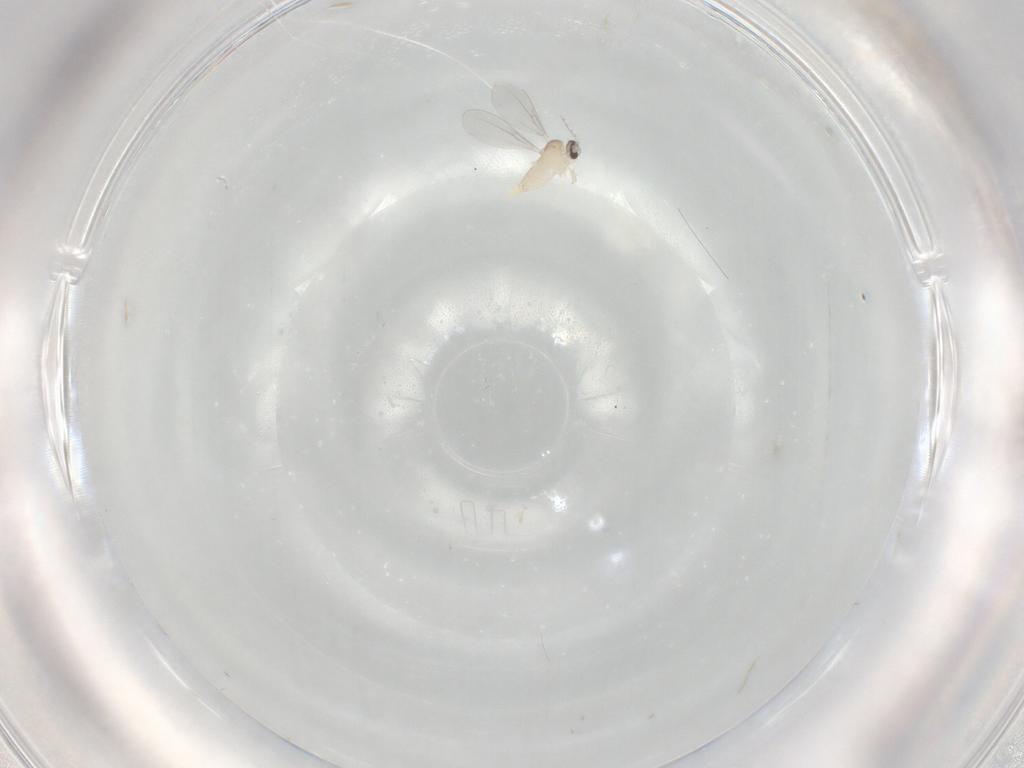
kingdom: Animalia
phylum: Arthropoda
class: Insecta
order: Diptera
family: Cecidomyiidae
